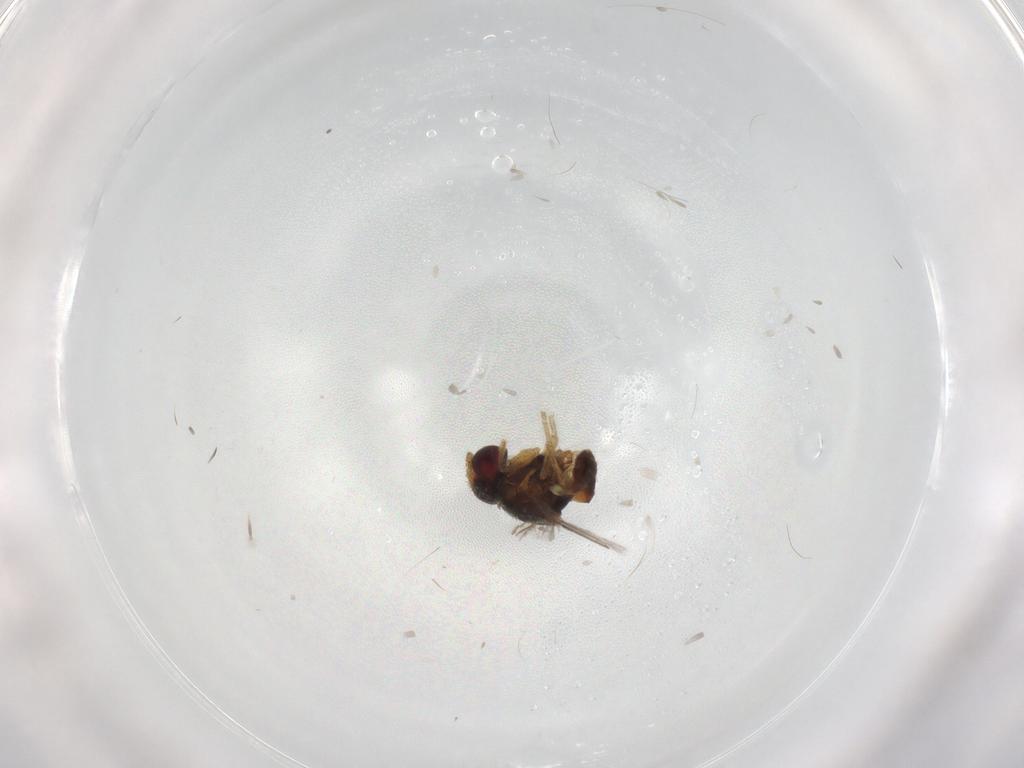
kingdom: Animalia
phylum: Arthropoda
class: Insecta
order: Diptera
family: Chloropidae
